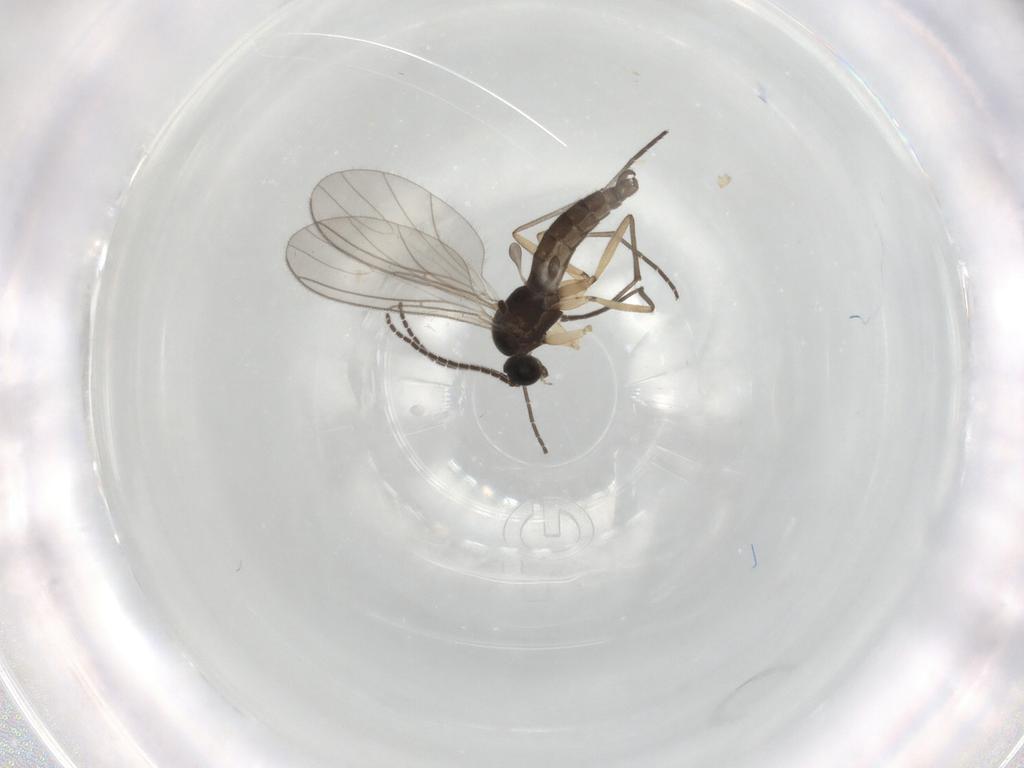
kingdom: Animalia
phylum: Arthropoda
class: Insecta
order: Diptera
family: Sciaridae
